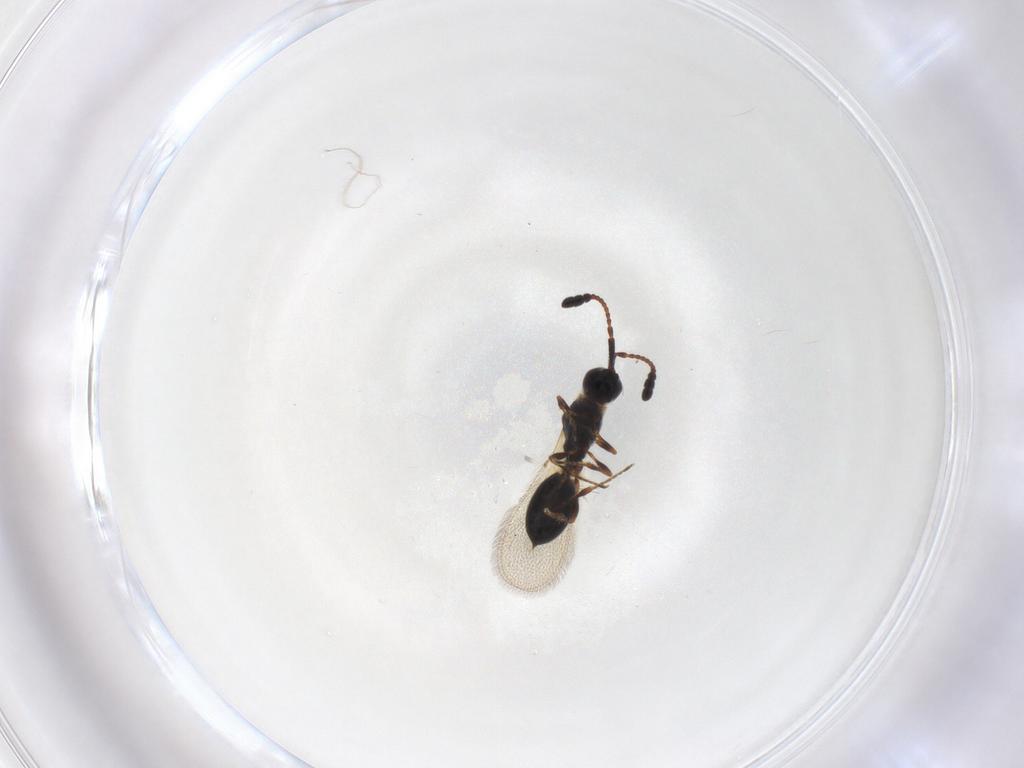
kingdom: Animalia
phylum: Arthropoda
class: Insecta
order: Hymenoptera
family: Diapriidae
